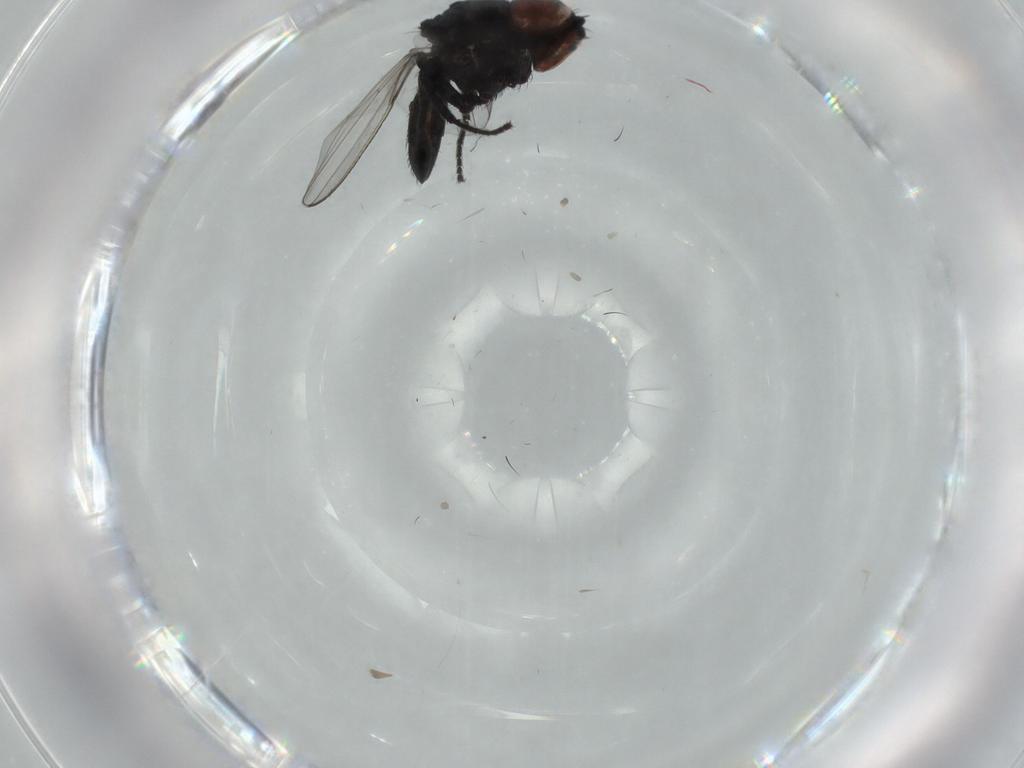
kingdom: Animalia
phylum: Arthropoda
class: Insecta
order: Diptera
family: Milichiidae
